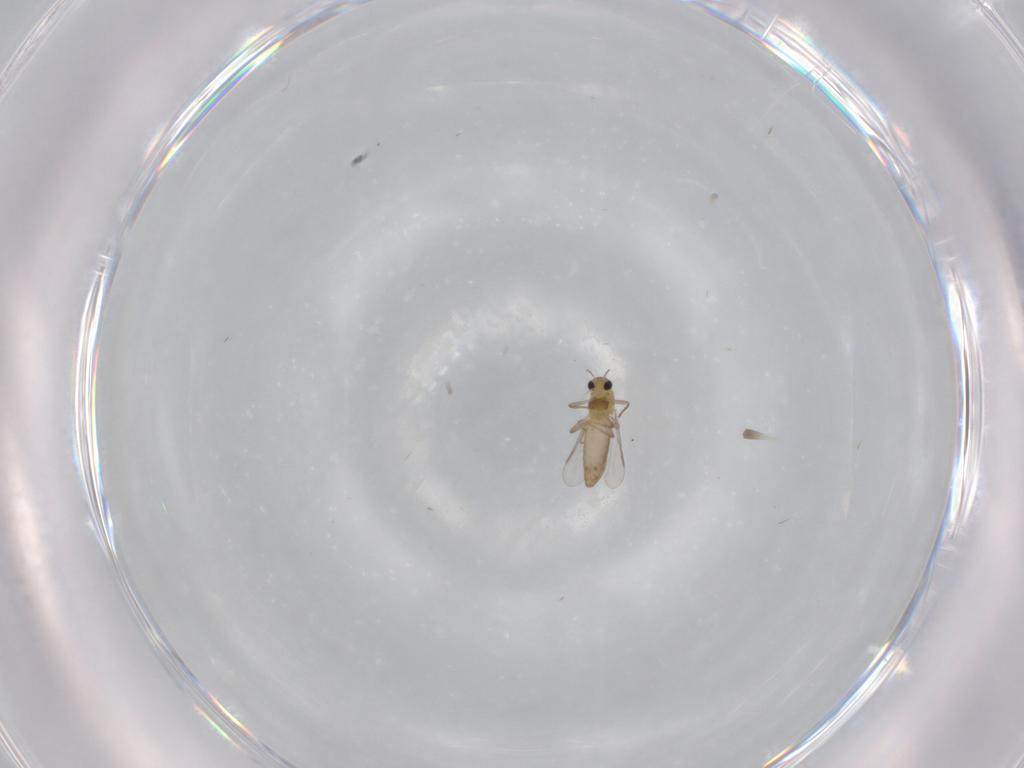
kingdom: Animalia
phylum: Arthropoda
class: Insecta
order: Diptera
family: Chironomidae
